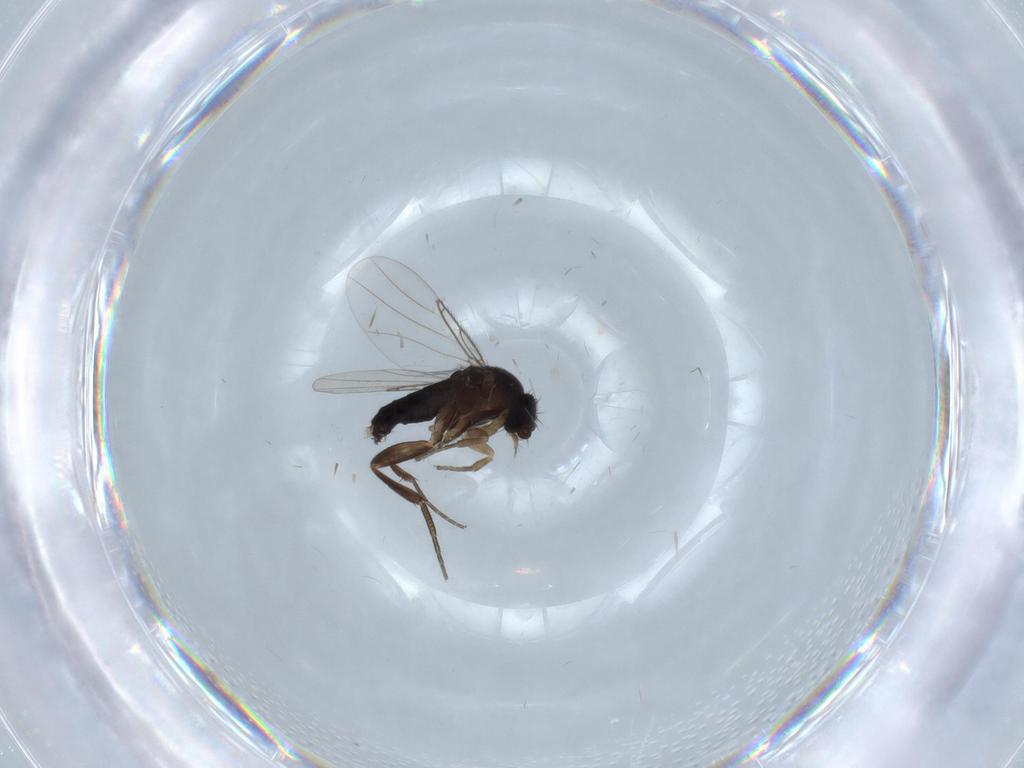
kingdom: Animalia
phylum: Arthropoda
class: Insecta
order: Diptera
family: Phoridae
